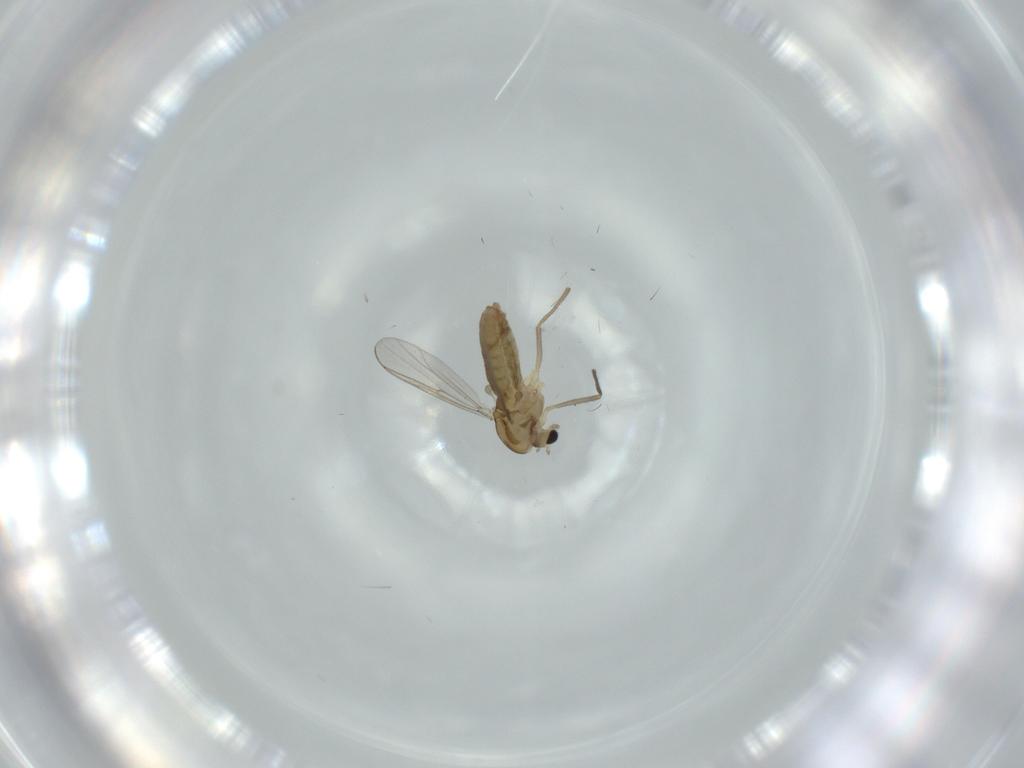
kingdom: Animalia
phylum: Arthropoda
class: Insecta
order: Diptera
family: Chironomidae
